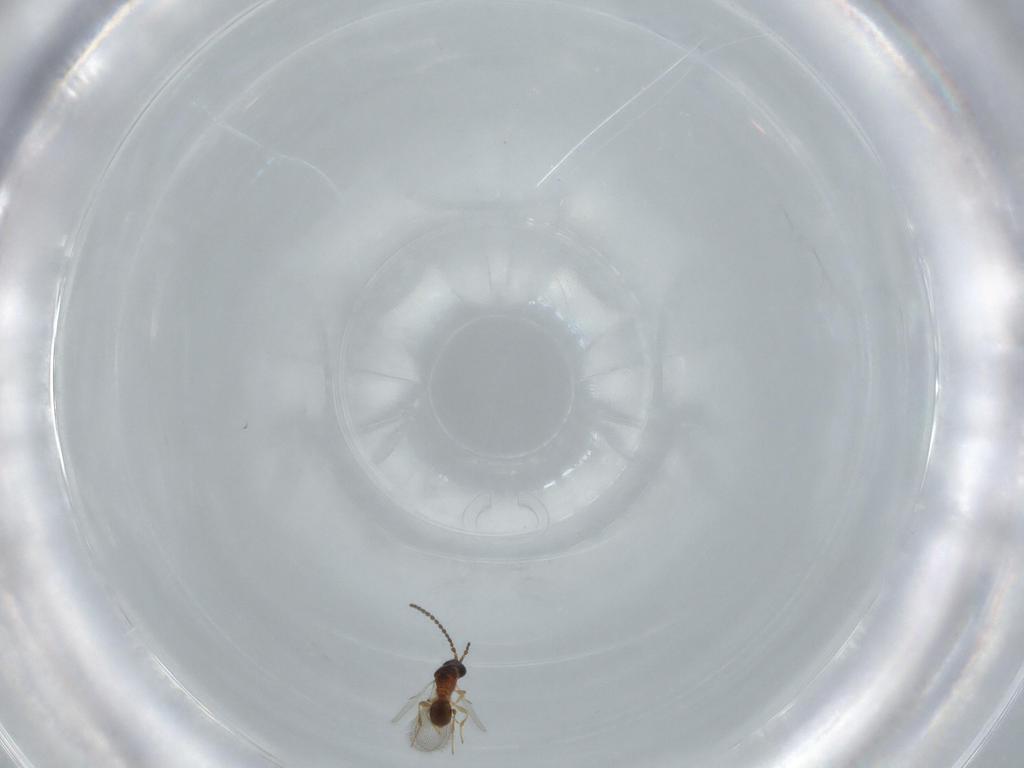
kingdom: Animalia
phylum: Arthropoda
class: Insecta
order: Hymenoptera
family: Diapriidae
